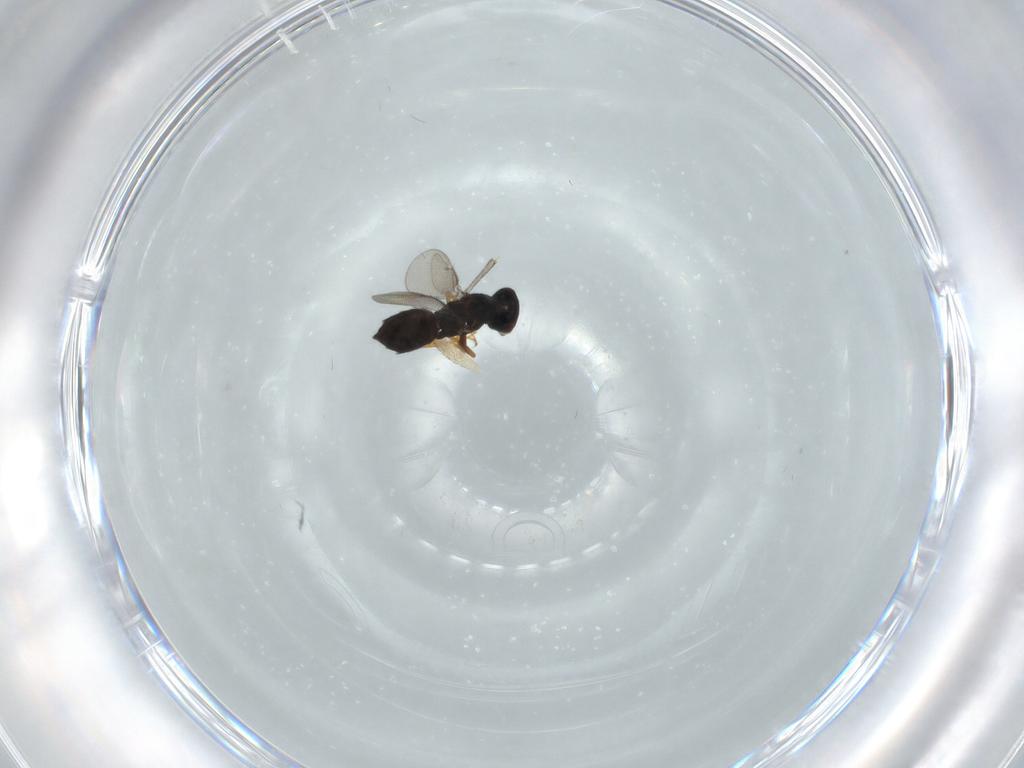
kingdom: Animalia
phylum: Arthropoda
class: Insecta
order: Hymenoptera
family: Eulophidae
